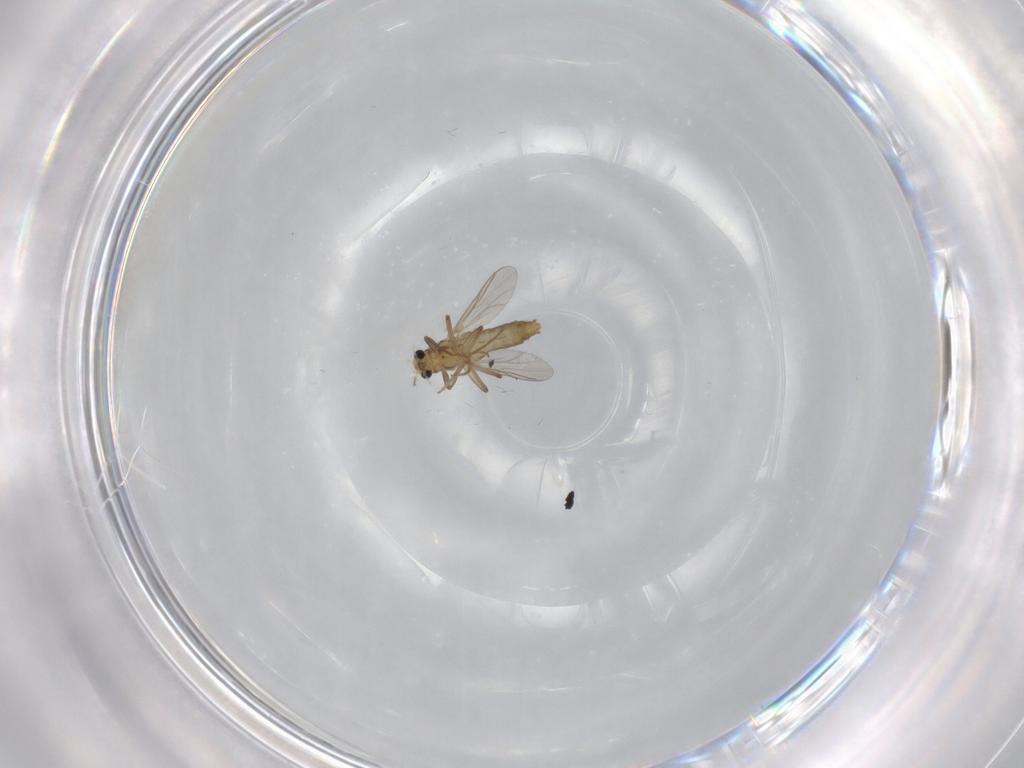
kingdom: Animalia
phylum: Arthropoda
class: Insecta
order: Diptera
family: Chironomidae
